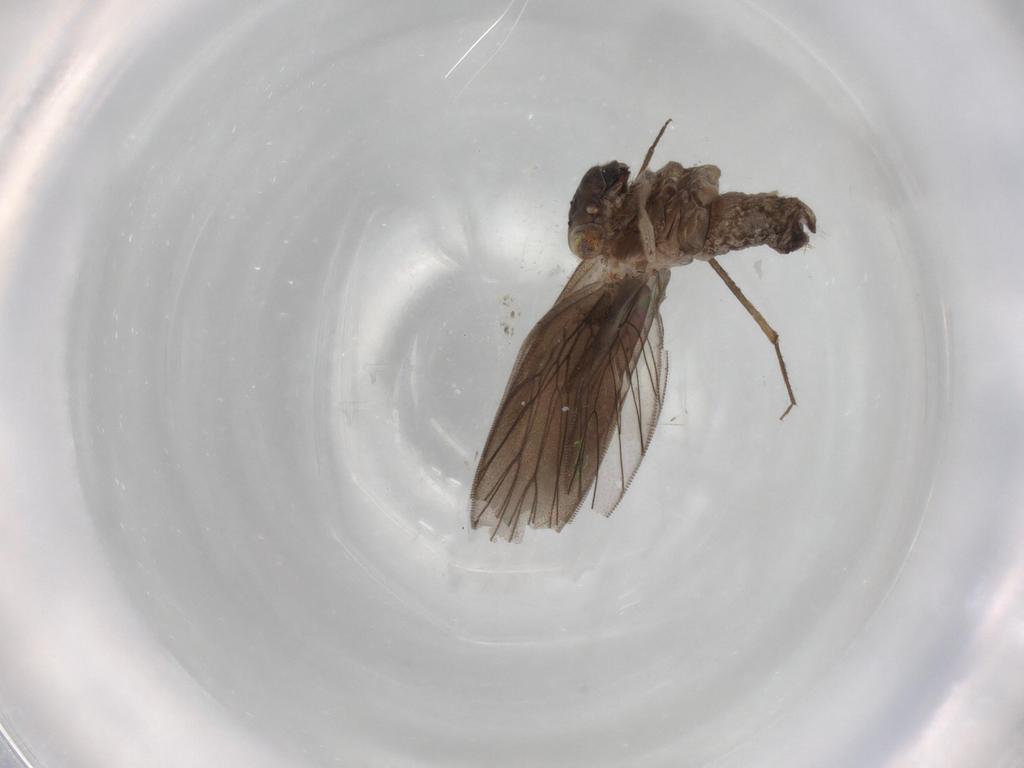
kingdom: Animalia
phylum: Arthropoda
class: Insecta
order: Psocodea
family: Lepidopsocidae
